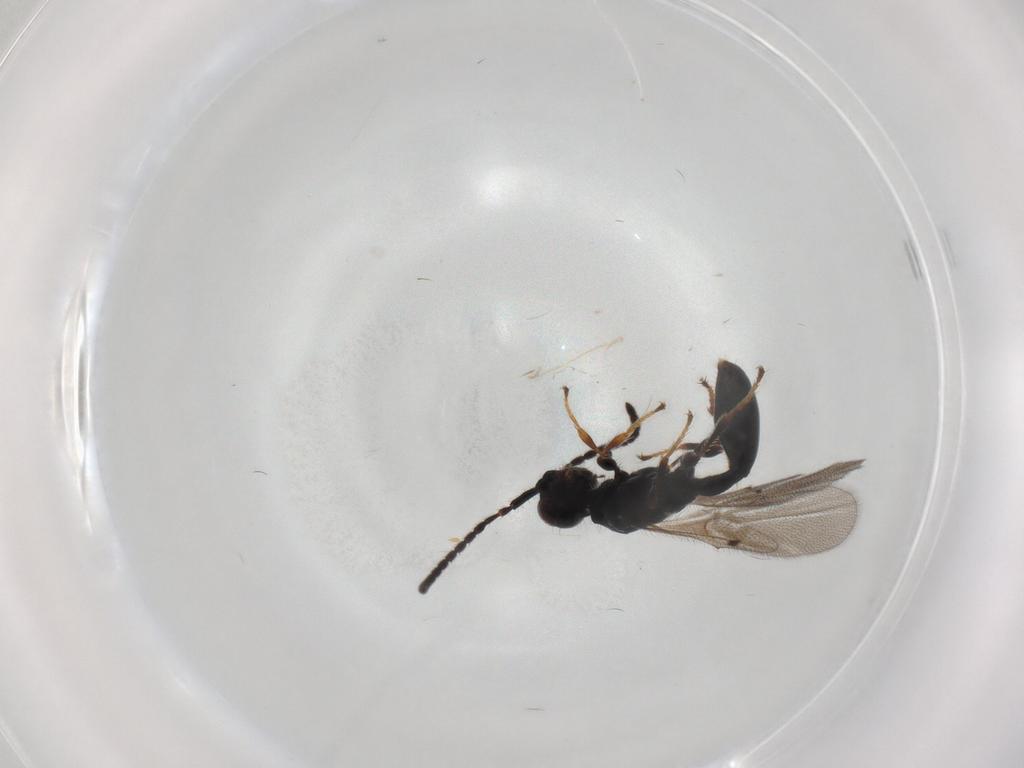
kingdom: Animalia
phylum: Arthropoda
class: Insecta
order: Hymenoptera
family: Diapriidae
